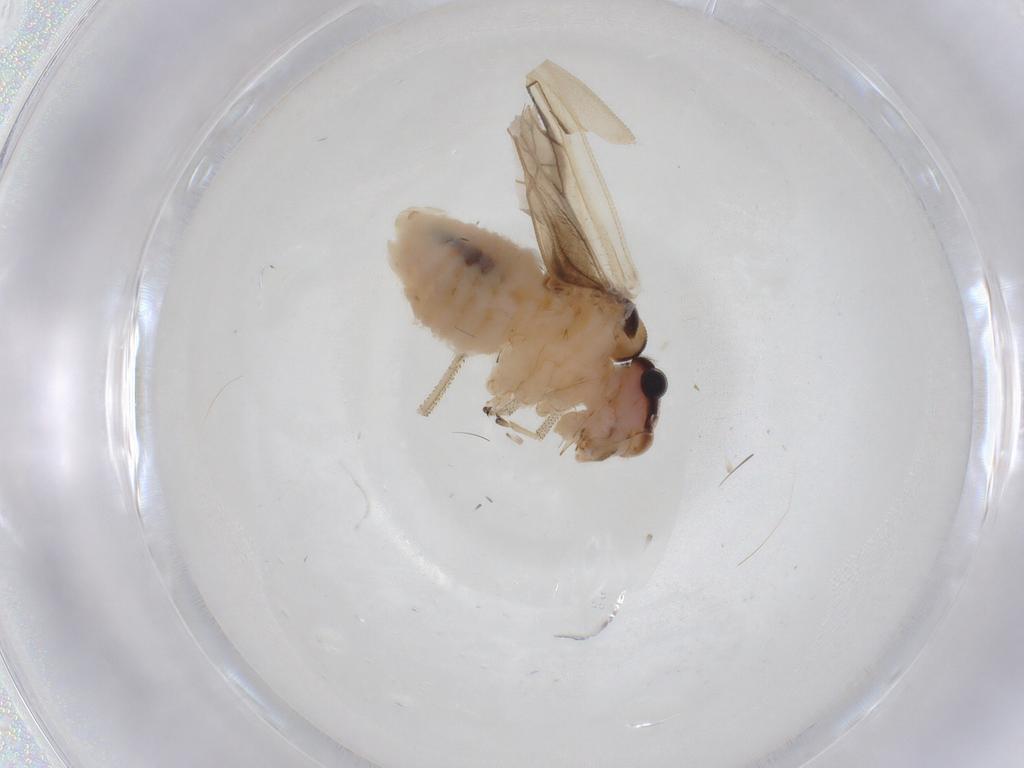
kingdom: Animalia
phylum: Arthropoda
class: Insecta
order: Psocodea
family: Amphipsocidae
